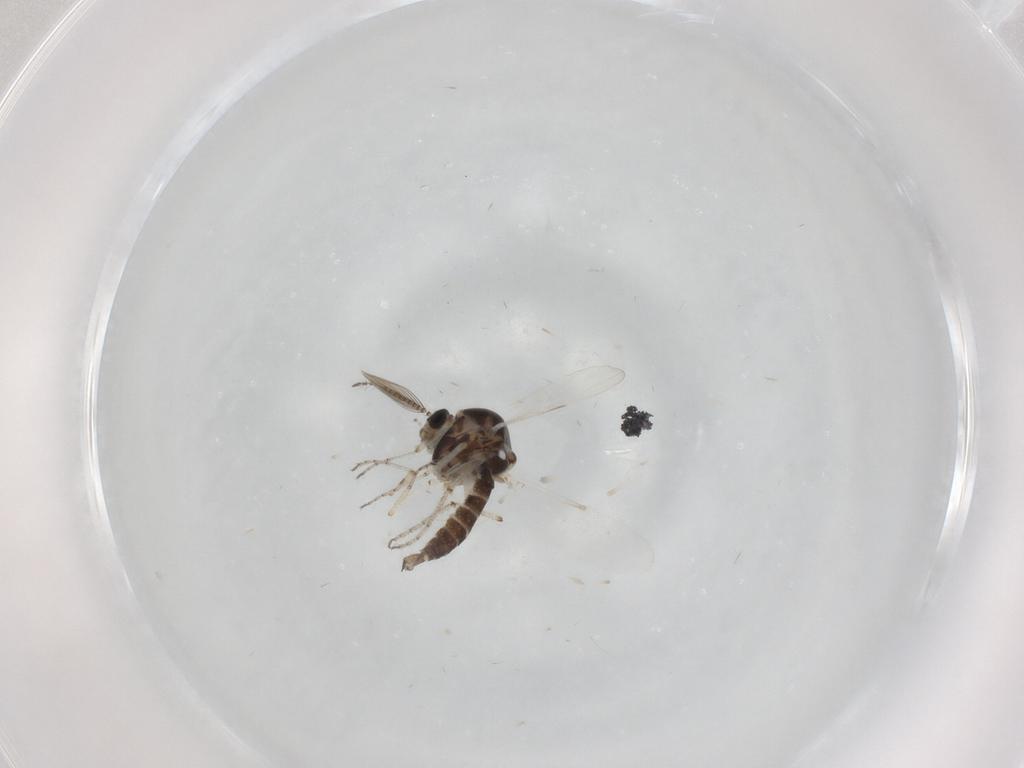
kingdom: Animalia
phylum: Arthropoda
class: Insecta
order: Diptera
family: Ceratopogonidae
